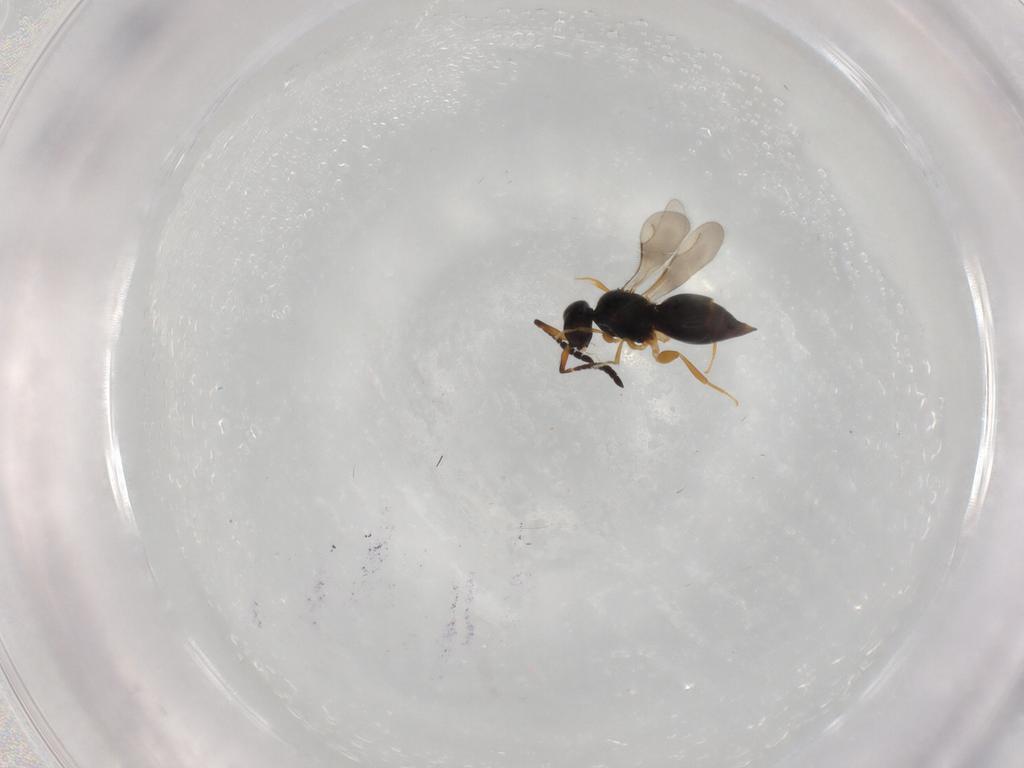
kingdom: Animalia
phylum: Arthropoda
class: Insecta
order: Hymenoptera
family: Ceraphronidae
